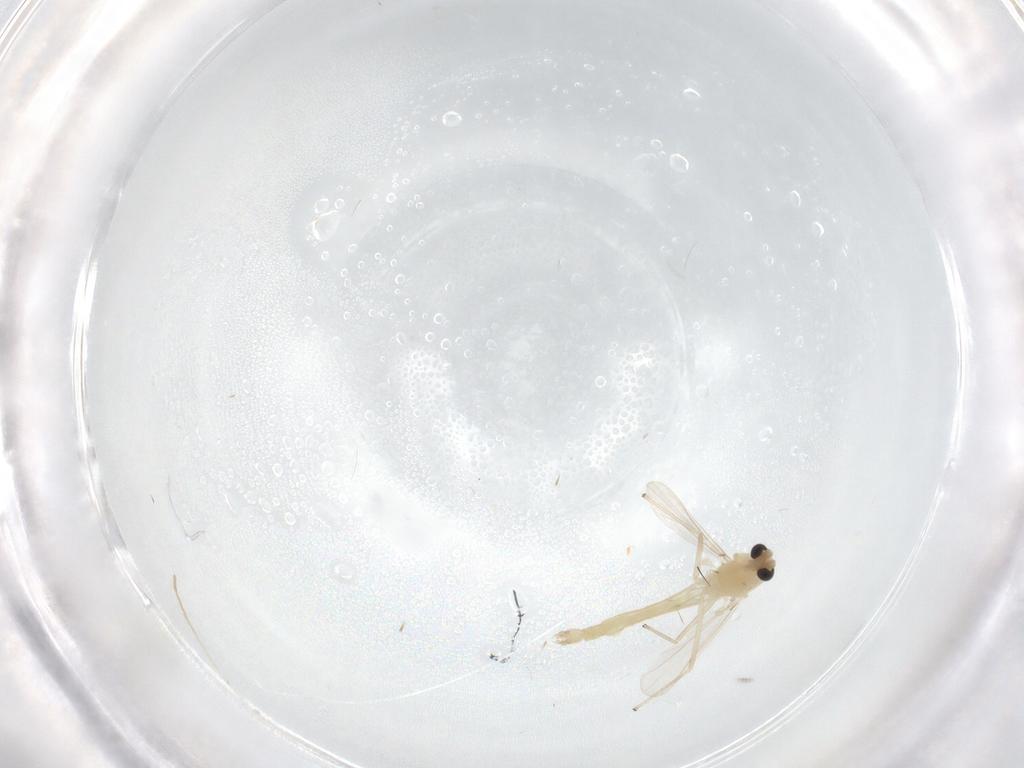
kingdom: Animalia
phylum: Arthropoda
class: Insecta
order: Diptera
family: Chironomidae
